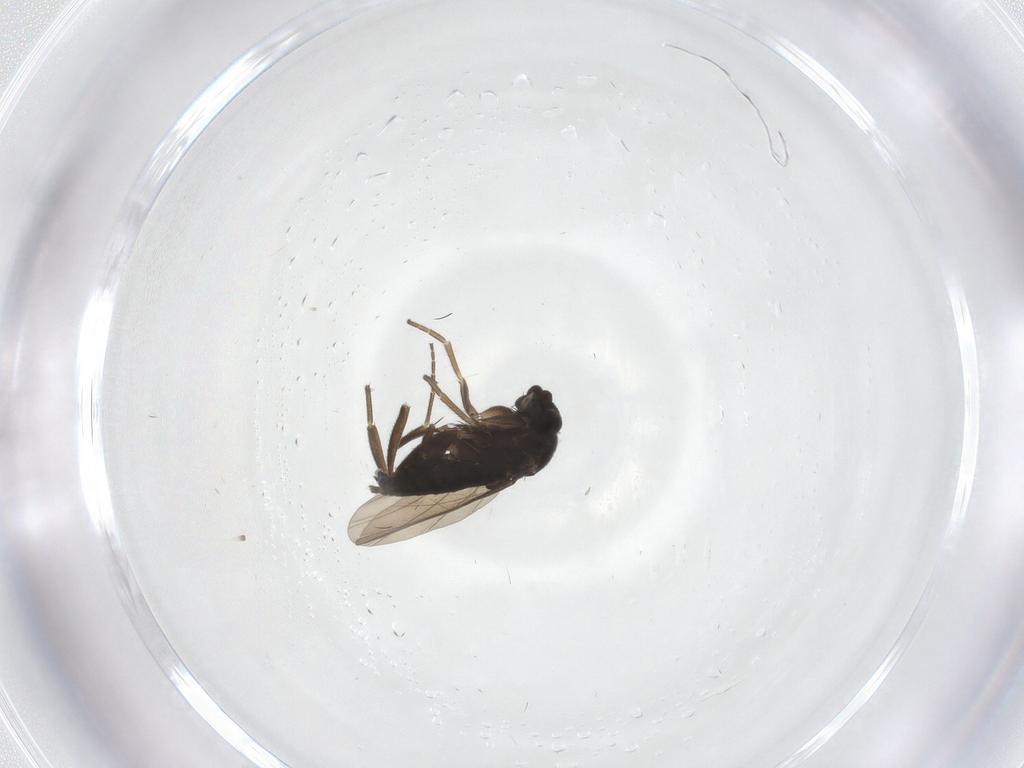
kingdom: Animalia
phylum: Arthropoda
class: Insecta
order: Diptera
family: Phoridae
